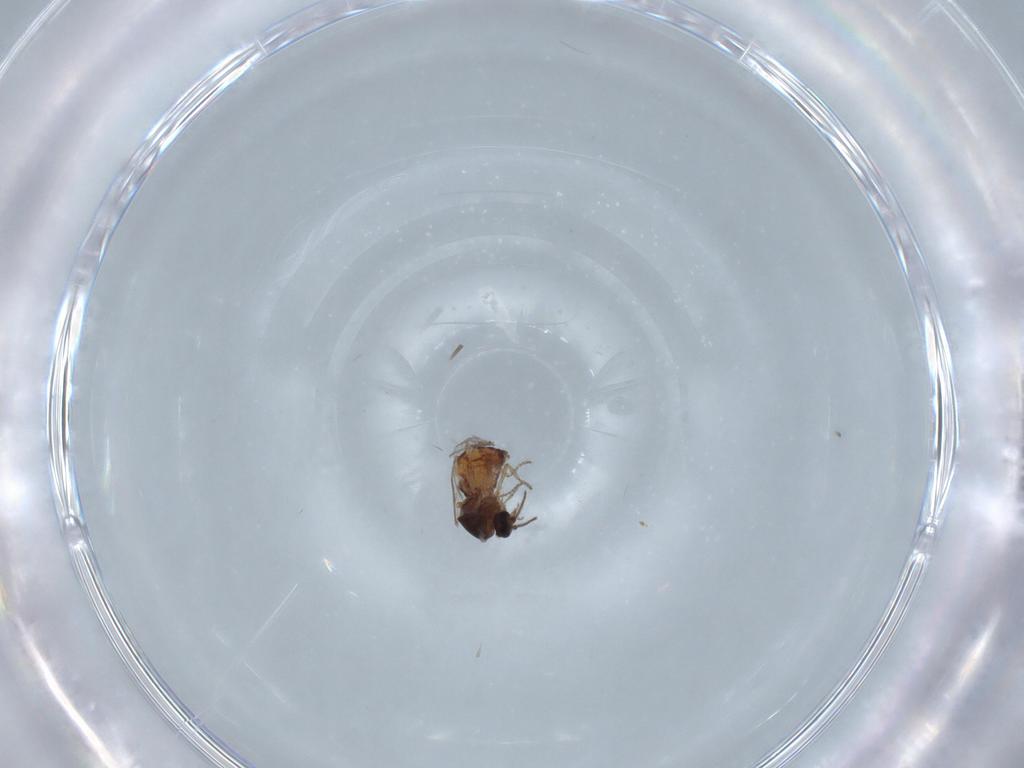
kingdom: Animalia
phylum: Arthropoda
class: Insecta
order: Diptera
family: Ceratopogonidae
